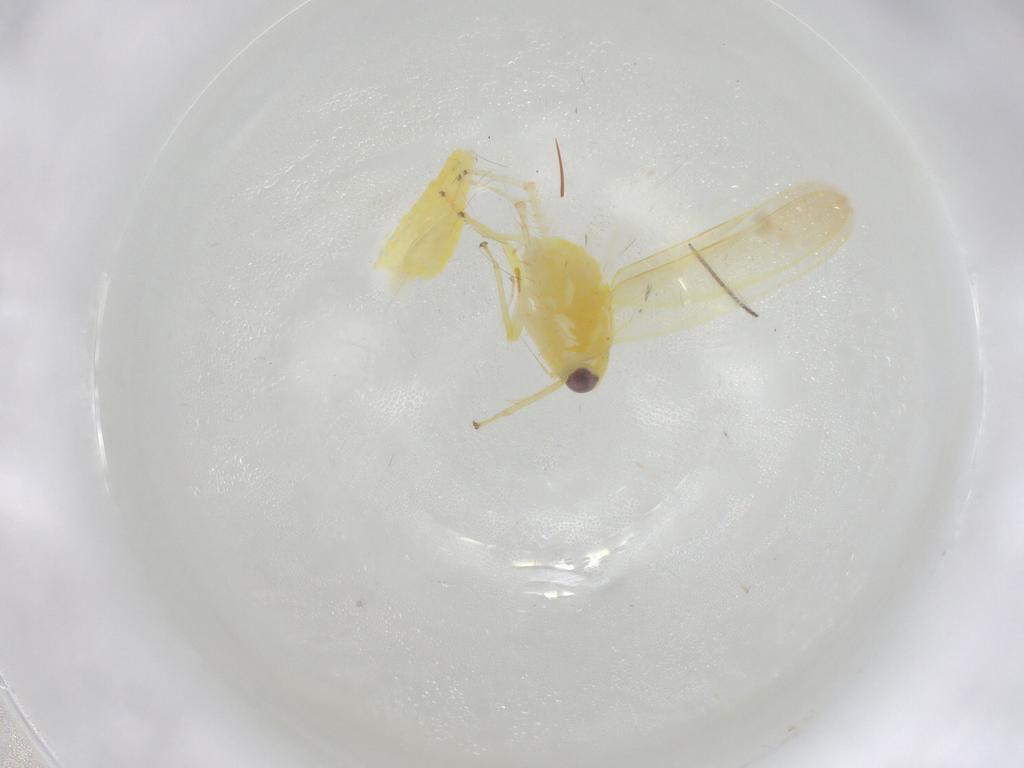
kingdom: Animalia
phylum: Arthropoda
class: Insecta
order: Hemiptera
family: Cicadellidae
